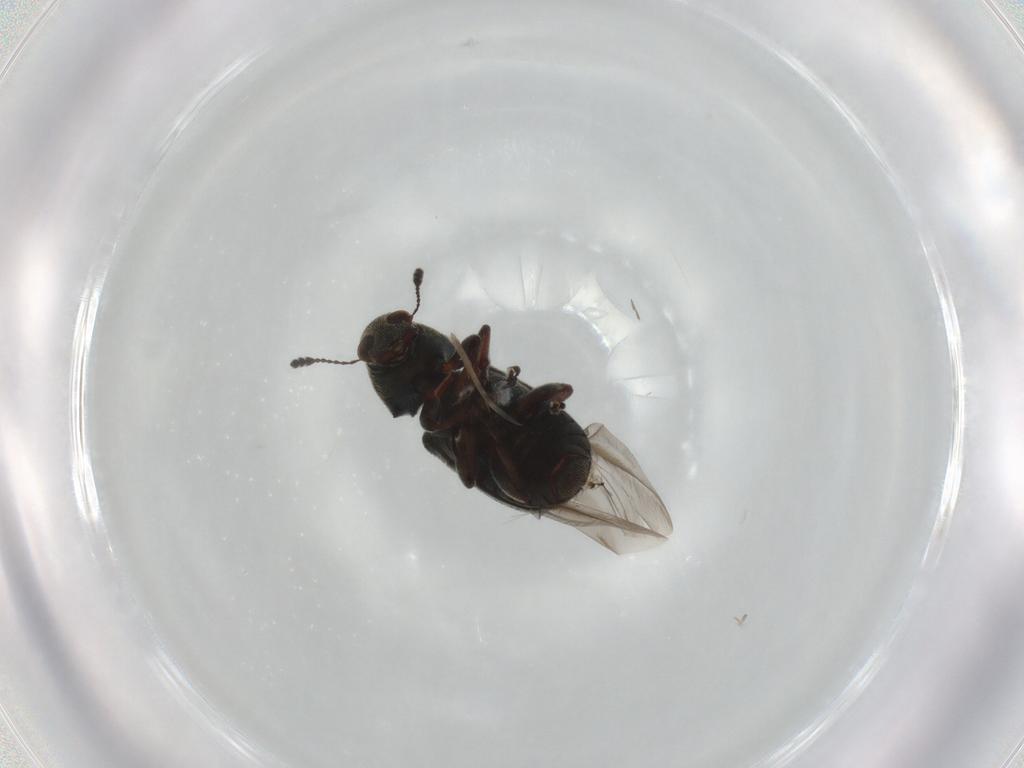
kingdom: Animalia
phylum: Arthropoda
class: Insecta
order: Coleoptera
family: Anthribidae
